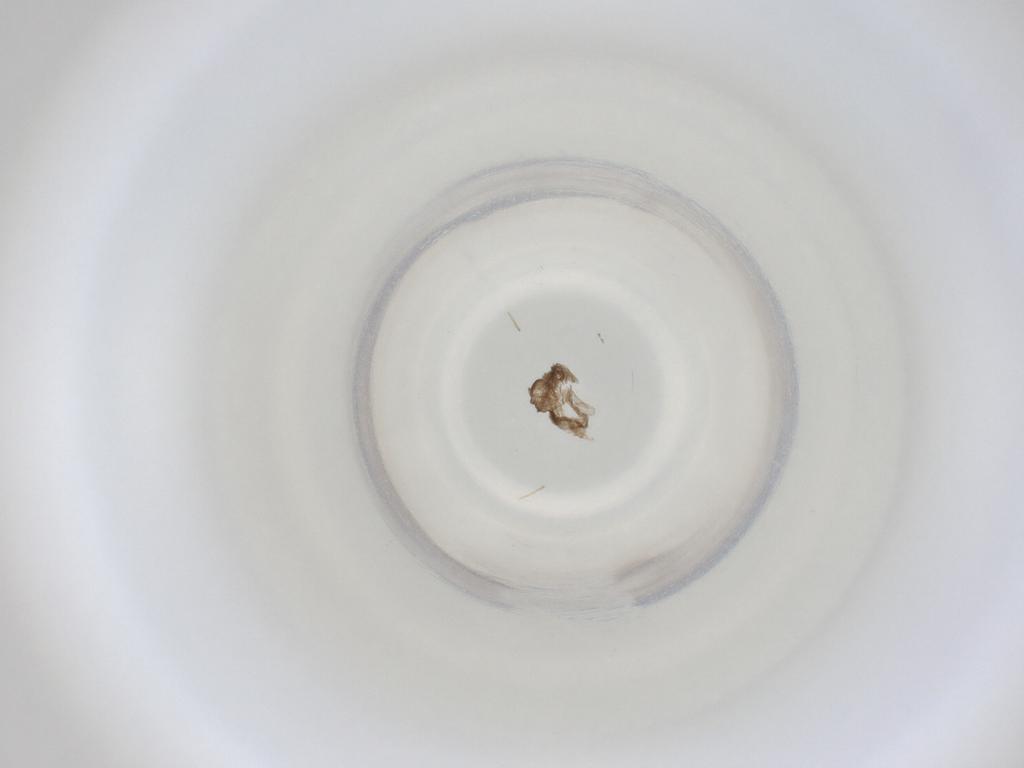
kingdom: Animalia
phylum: Arthropoda
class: Insecta
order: Diptera
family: Cecidomyiidae
